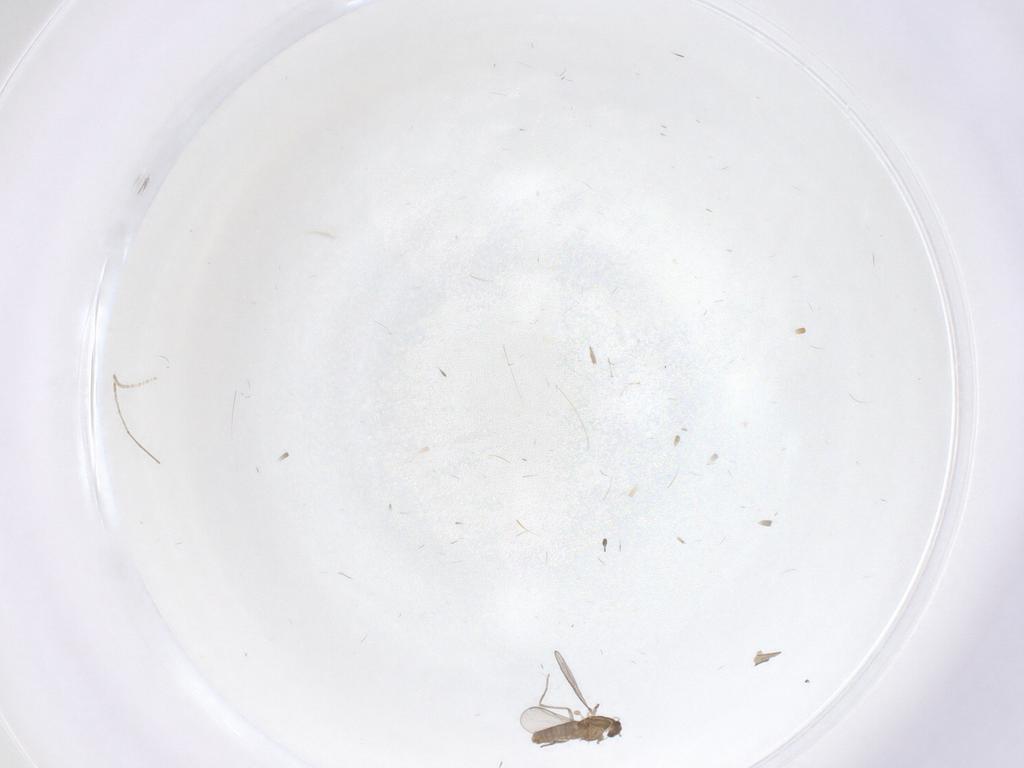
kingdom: Animalia
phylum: Arthropoda
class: Insecta
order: Diptera
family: Chironomidae
